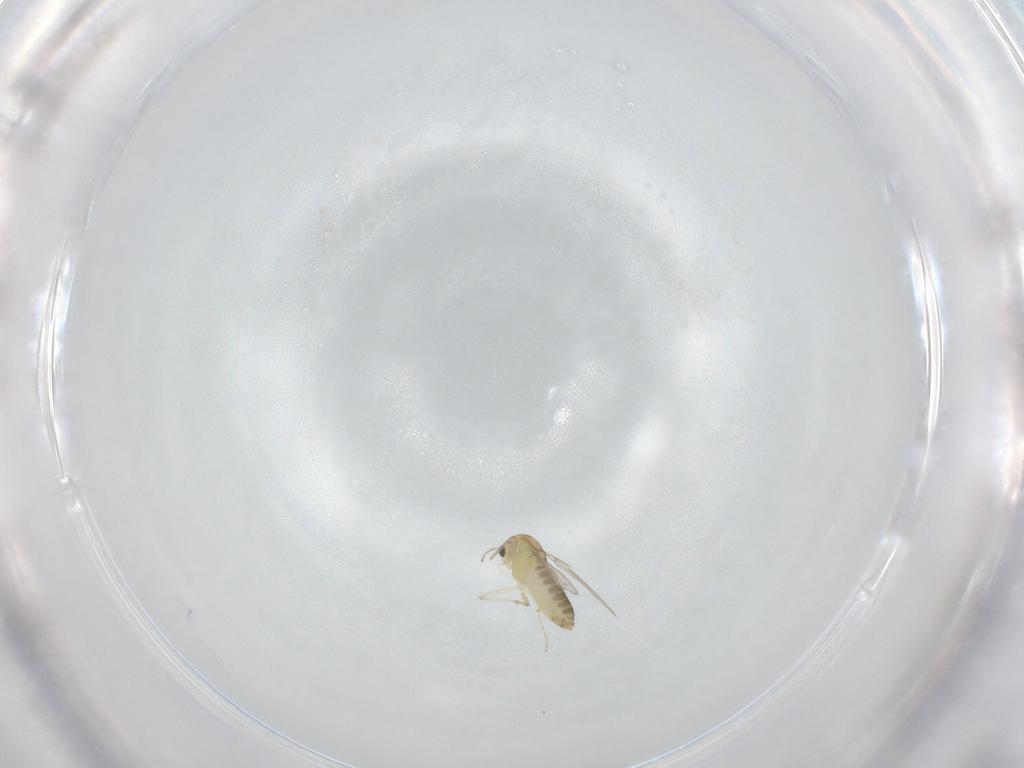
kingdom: Animalia
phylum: Arthropoda
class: Insecta
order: Diptera
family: Chironomidae
